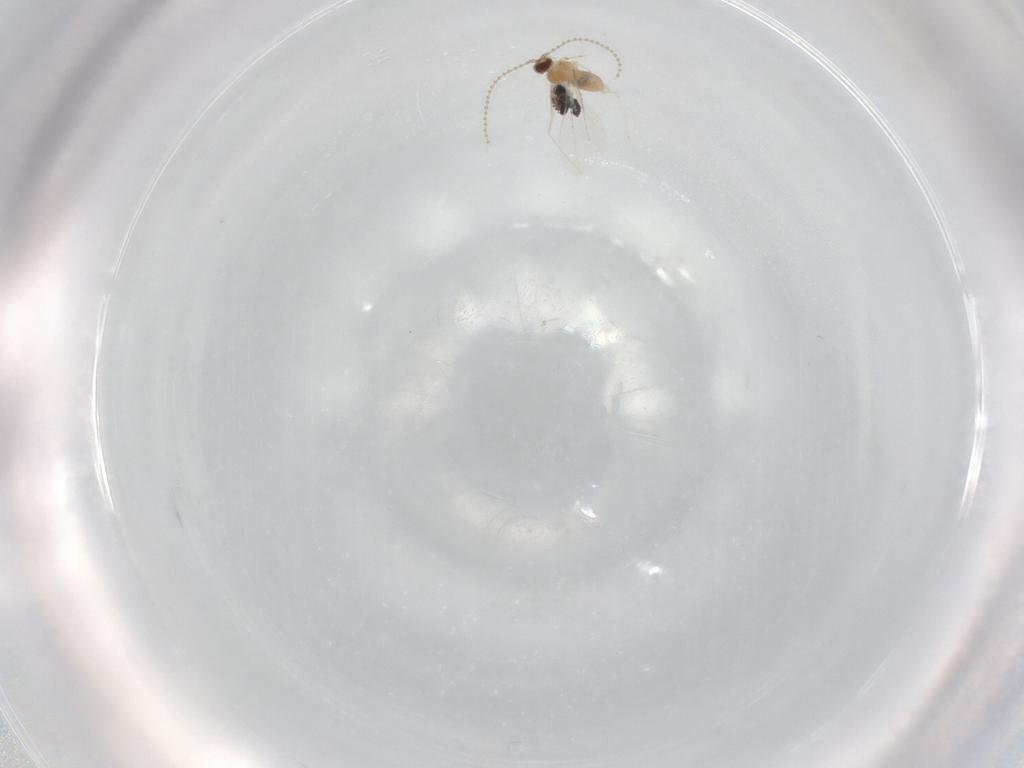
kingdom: Animalia
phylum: Arthropoda
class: Insecta
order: Diptera
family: Cecidomyiidae
